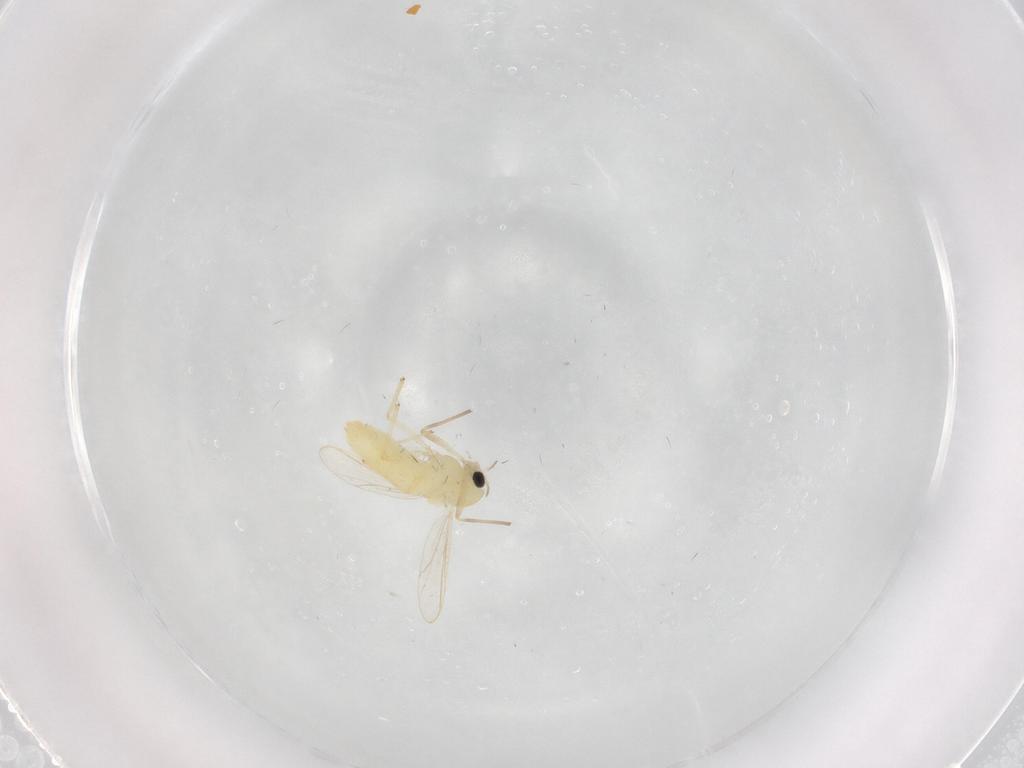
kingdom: Animalia
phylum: Arthropoda
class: Insecta
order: Diptera
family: Chironomidae
